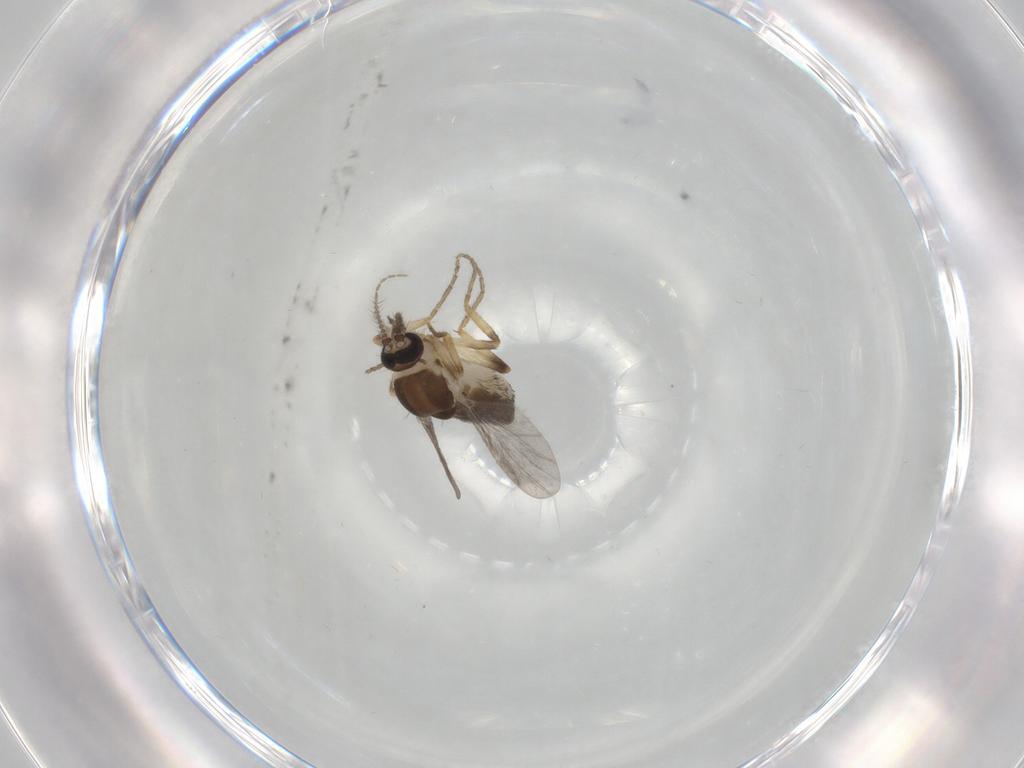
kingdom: Animalia
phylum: Arthropoda
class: Insecta
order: Diptera
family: Ceratopogonidae
